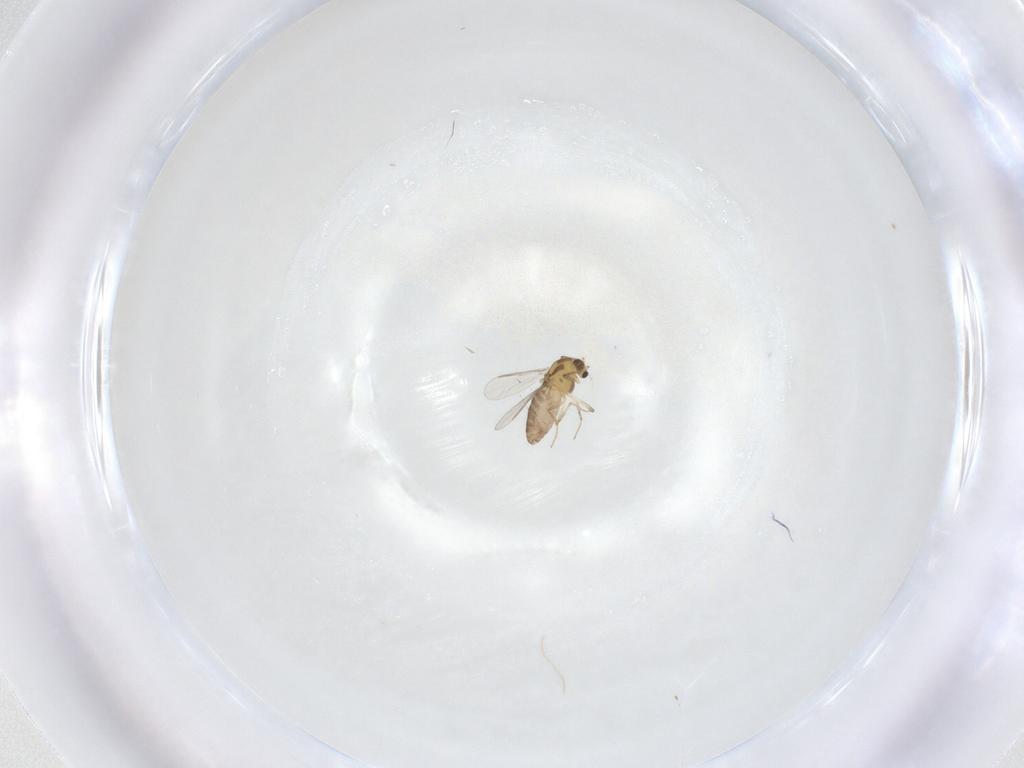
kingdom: Animalia
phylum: Arthropoda
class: Insecta
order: Diptera
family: Chironomidae
